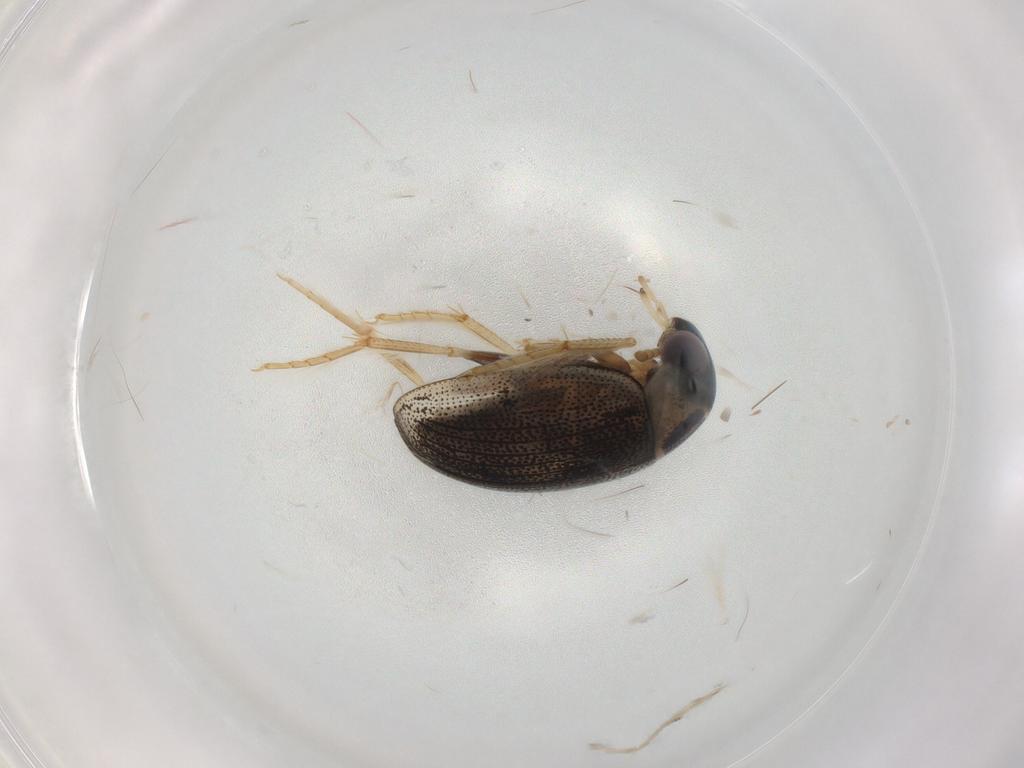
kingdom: Animalia
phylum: Arthropoda
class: Insecta
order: Coleoptera
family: Hydrophilidae
